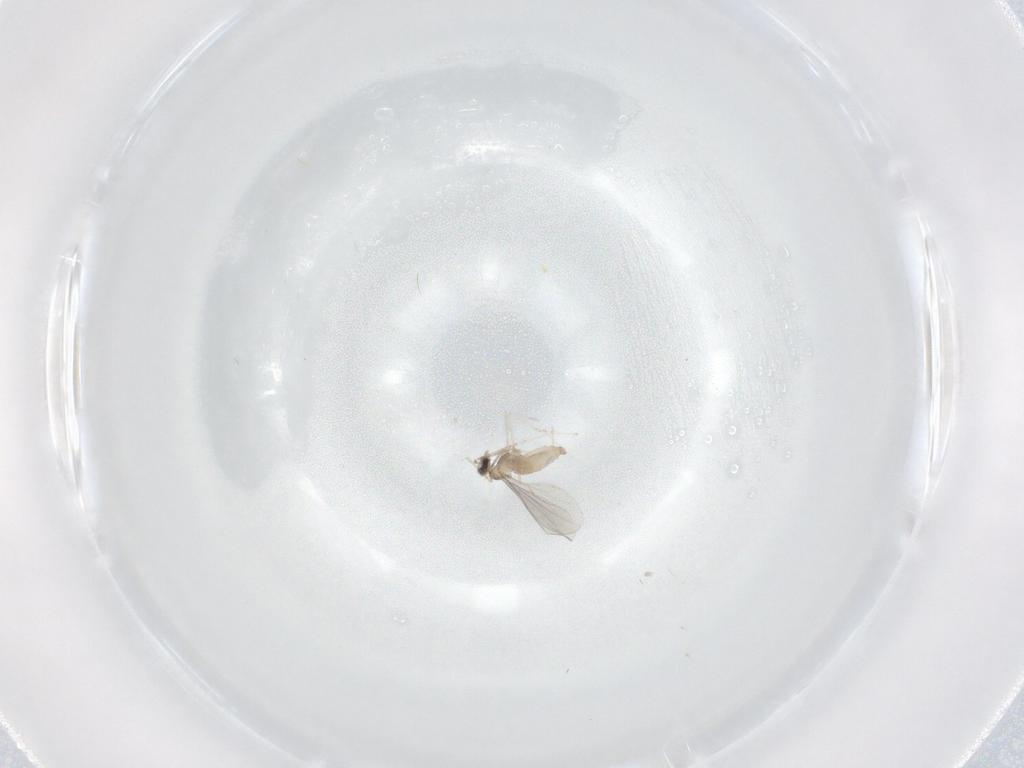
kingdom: Animalia
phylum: Arthropoda
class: Insecta
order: Diptera
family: Cecidomyiidae
